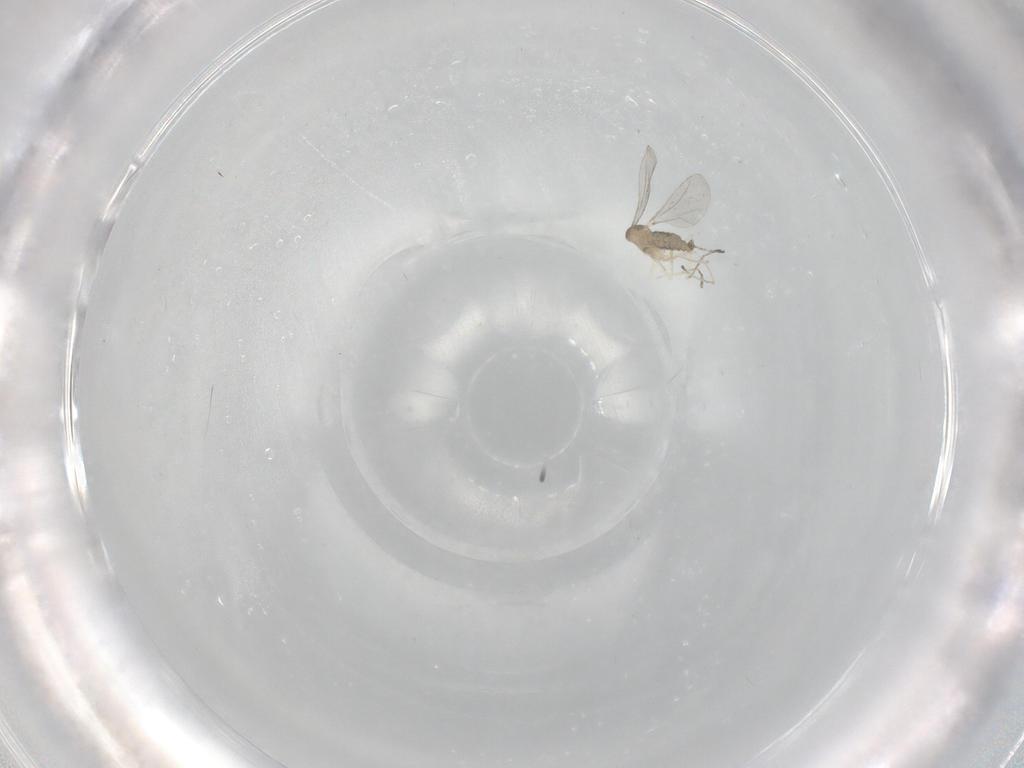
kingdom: Animalia
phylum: Arthropoda
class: Insecta
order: Diptera
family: Cecidomyiidae
